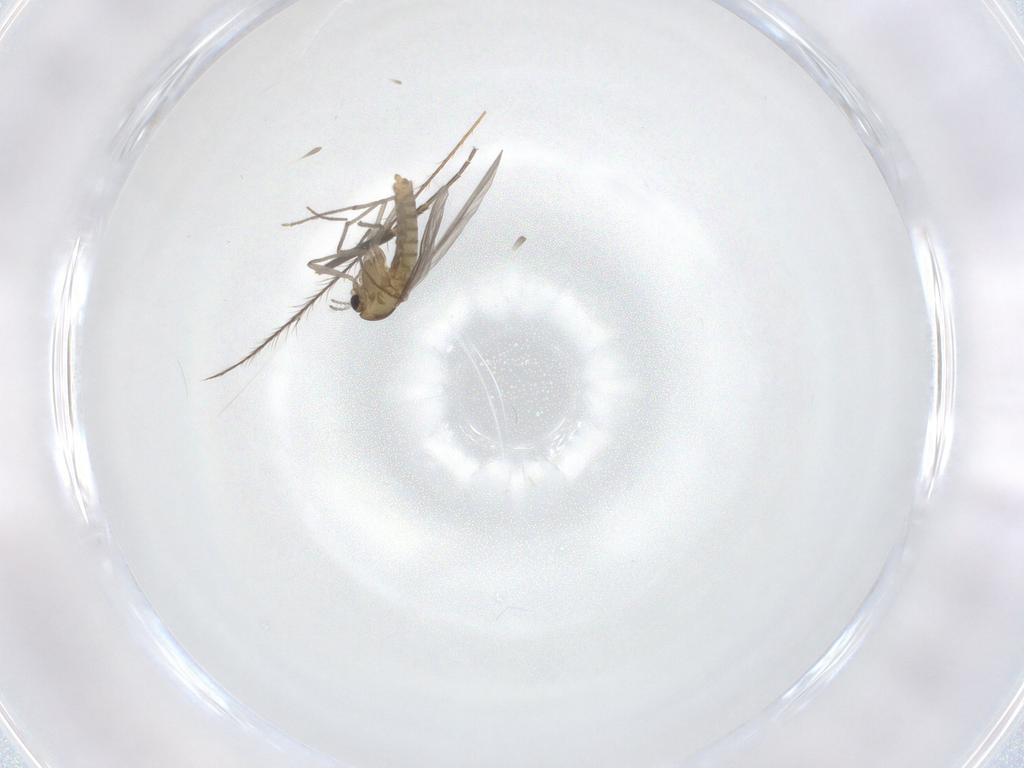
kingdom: Animalia
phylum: Arthropoda
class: Insecta
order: Diptera
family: Chironomidae
